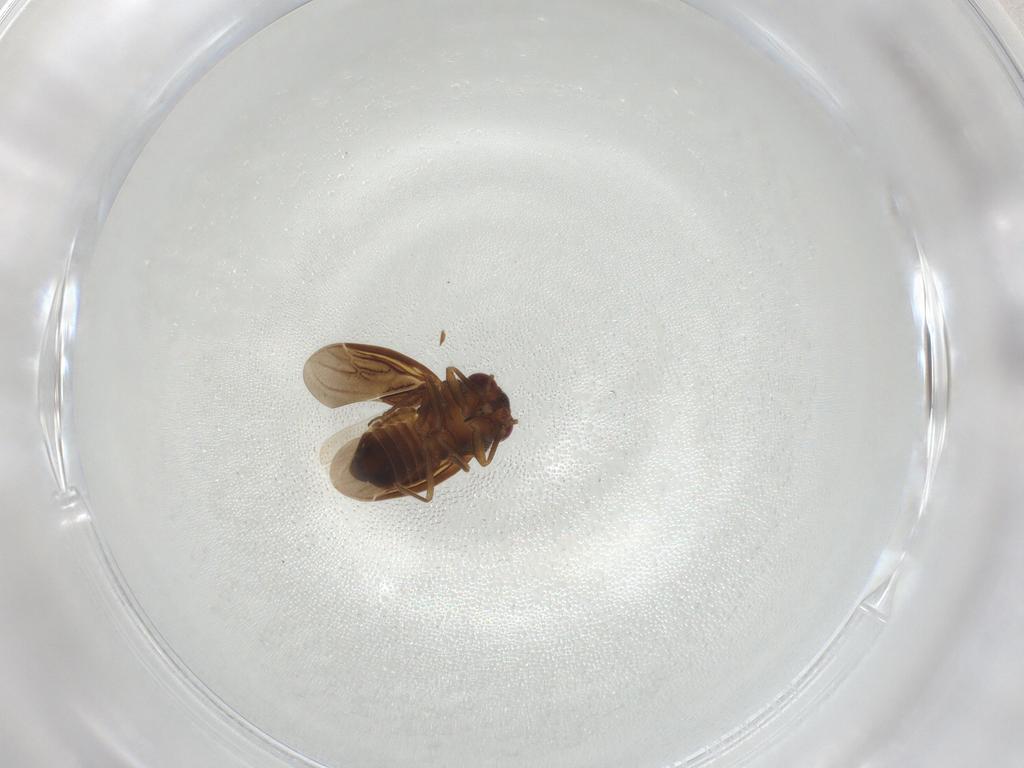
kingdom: Animalia
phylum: Arthropoda
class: Insecta
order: Hemiptera
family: Schizopteridae
